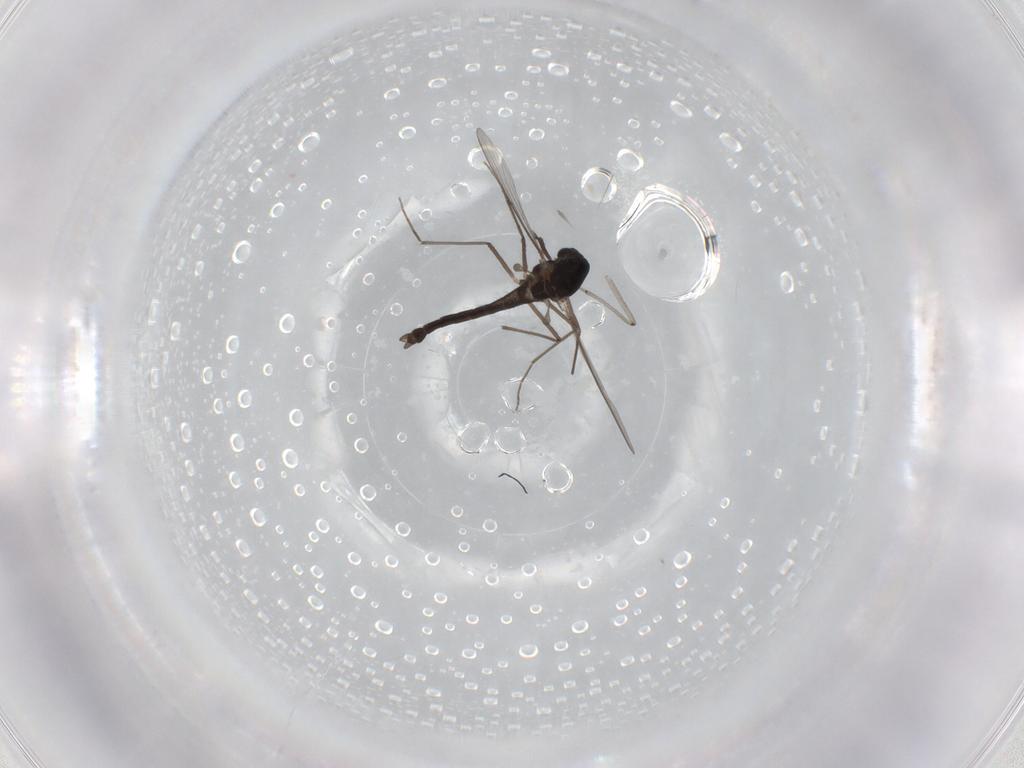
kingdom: Animalia
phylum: Arthropoda
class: Insecta
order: Diptera
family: Chironomidae
